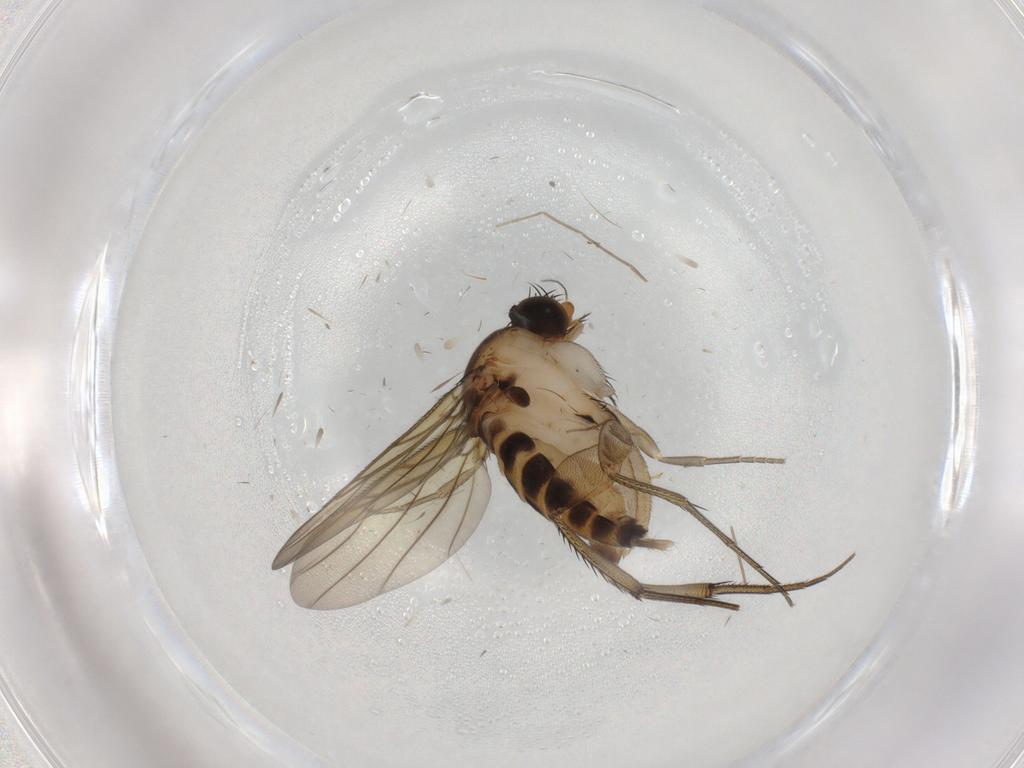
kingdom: Animalia
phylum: Arthropoda
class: Insecta
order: Diptera
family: Phoridae
